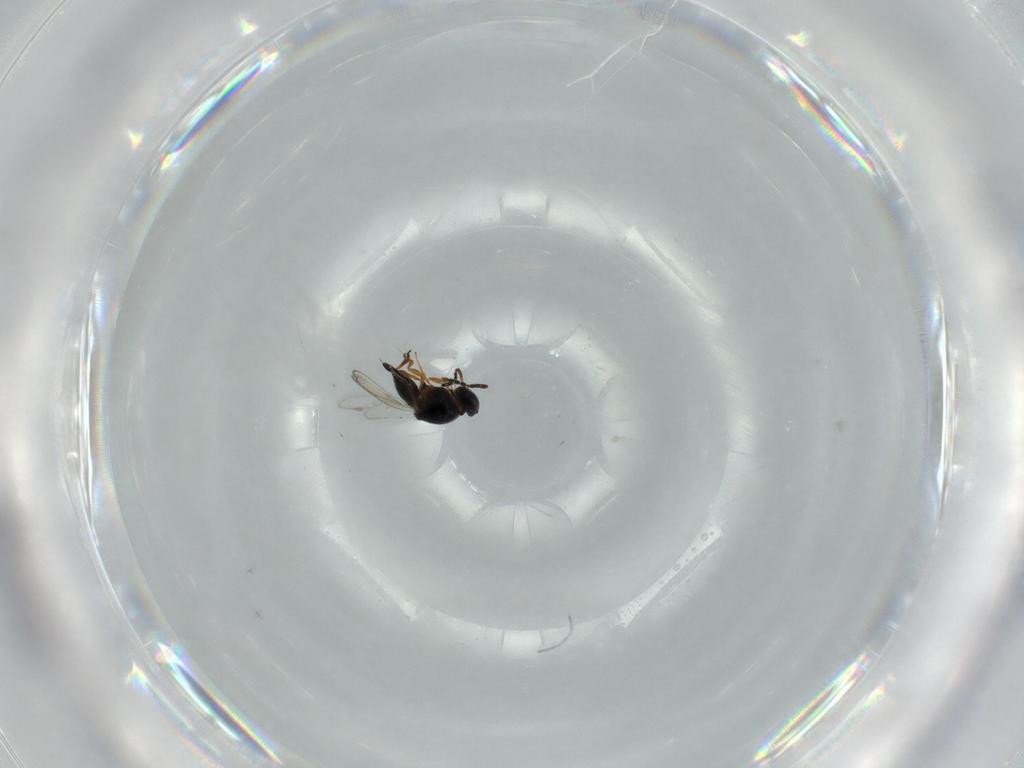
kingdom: Animalia
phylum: Arthropoda
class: Insecta
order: Hymenoptera
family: Platygastridae
